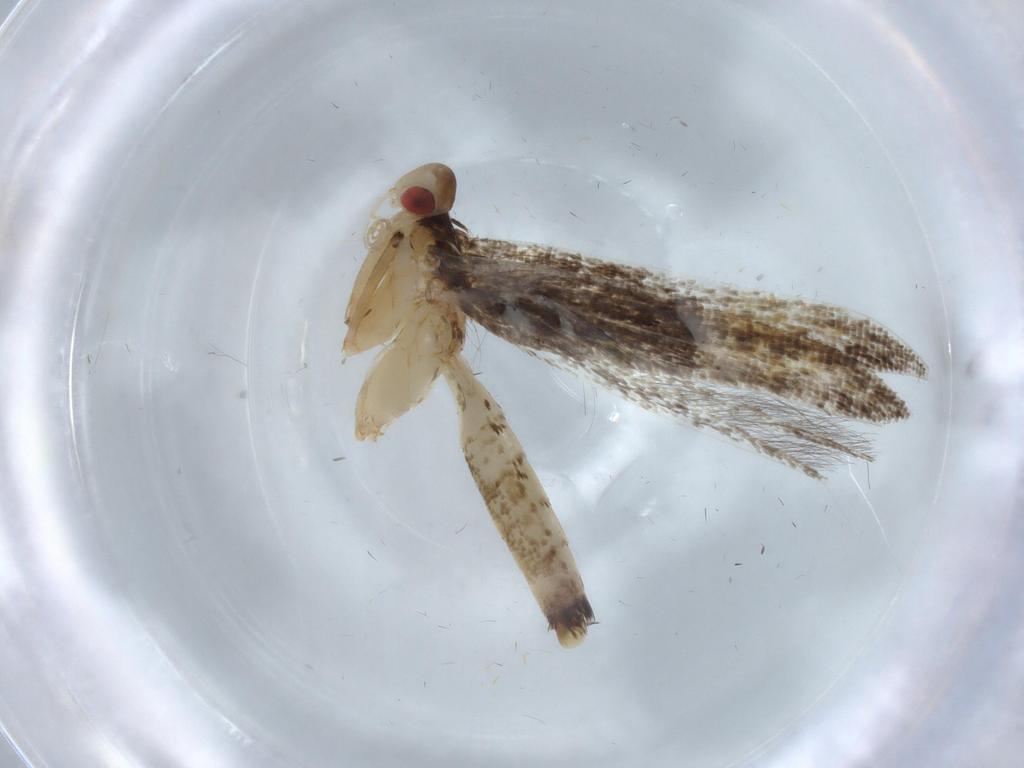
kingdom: Animalia
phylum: Arthropoda
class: Insecta
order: Lepidoptera
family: Cosmopterigidae
